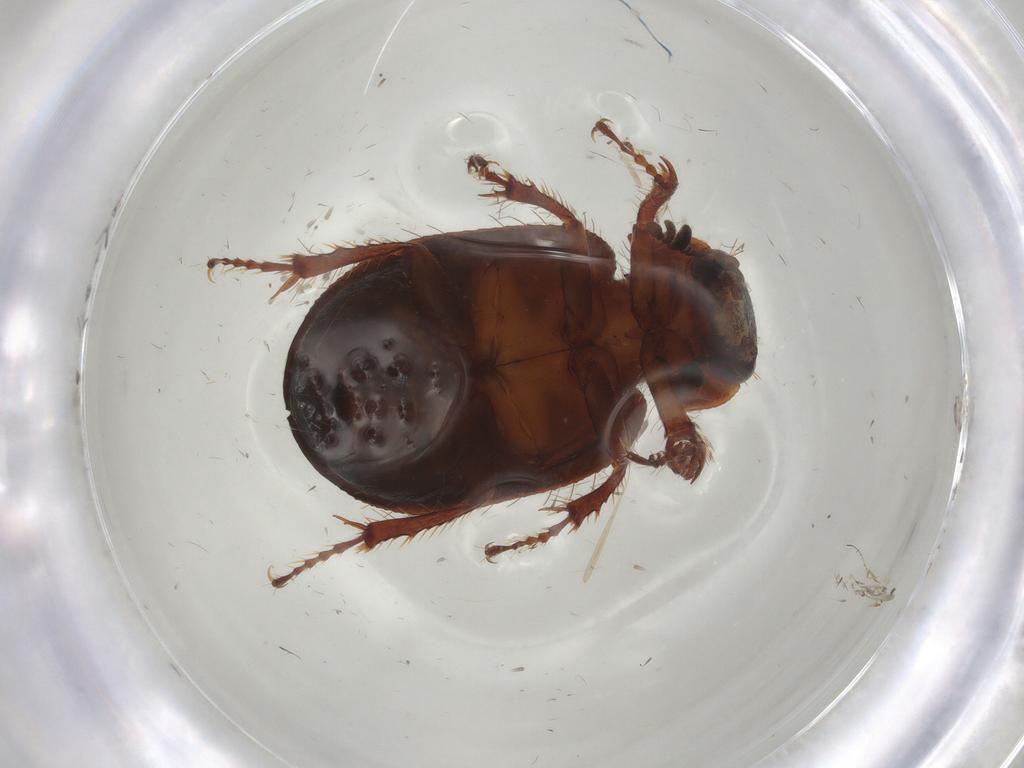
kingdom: Animalia
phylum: Arthropoda
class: Insecta
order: Coleoptera
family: Hybosoridae
